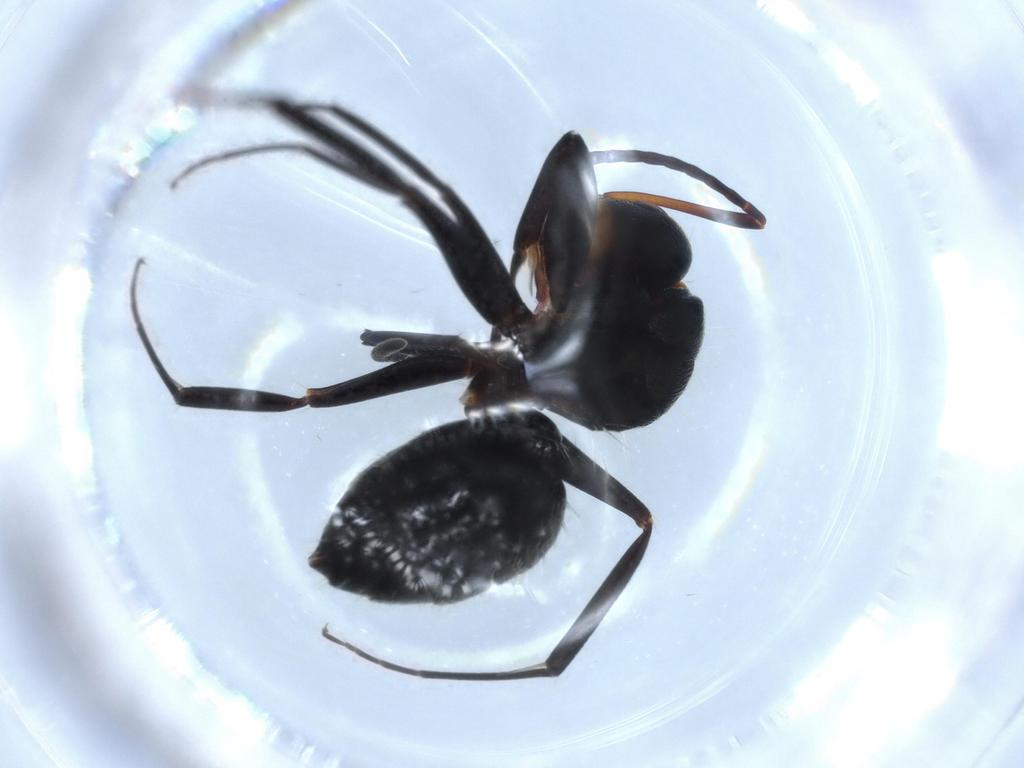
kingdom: Animalia
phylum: Arthropoda
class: Insecta
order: Hymenoptera
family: Formicidae
